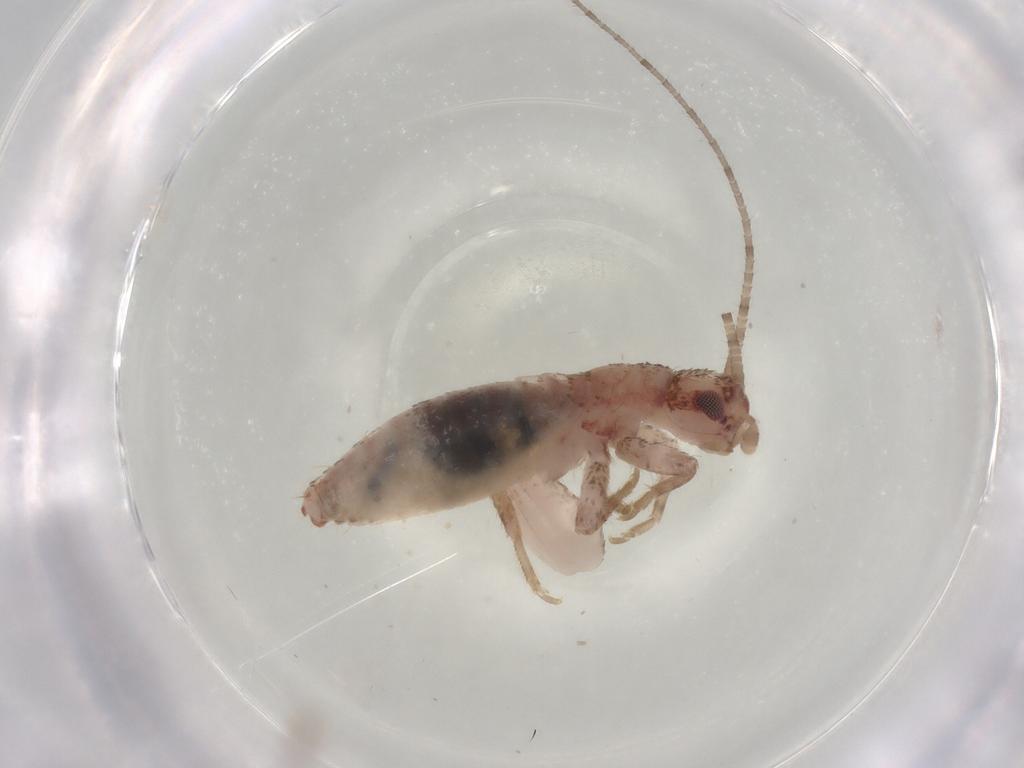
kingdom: Animalia
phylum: Arthropoda
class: Insecta
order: Orthoptera
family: Mogoplistidae
